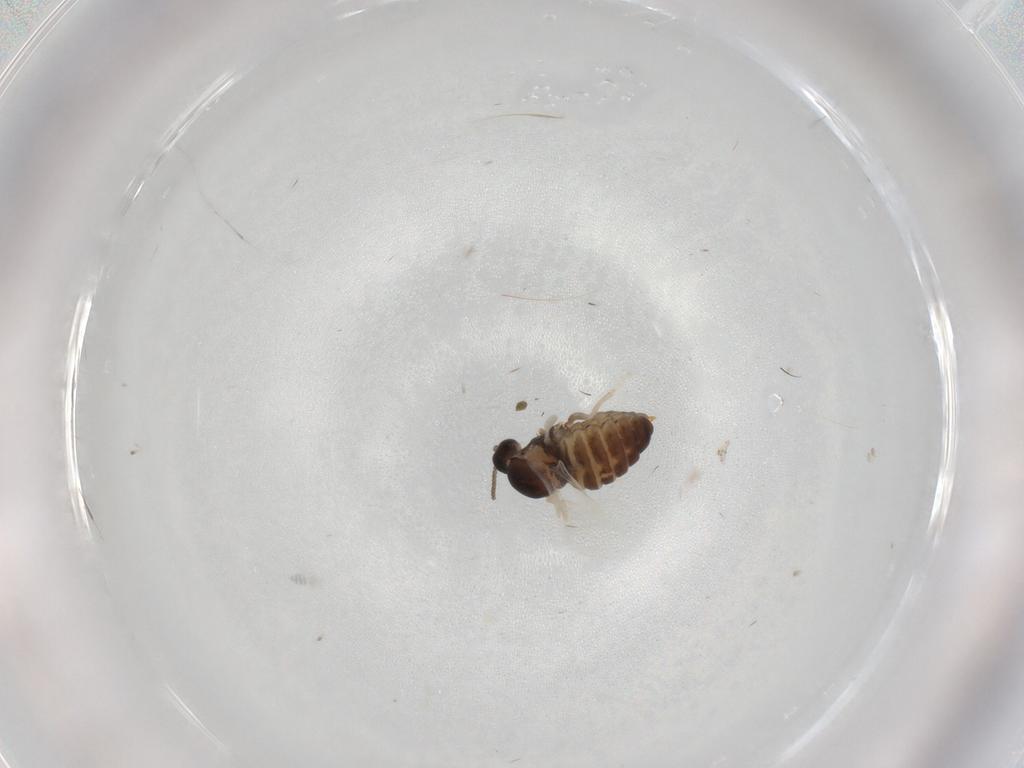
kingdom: Animalia
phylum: Arthropoda
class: Insecta
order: Diptera
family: Cecidomyiidae
